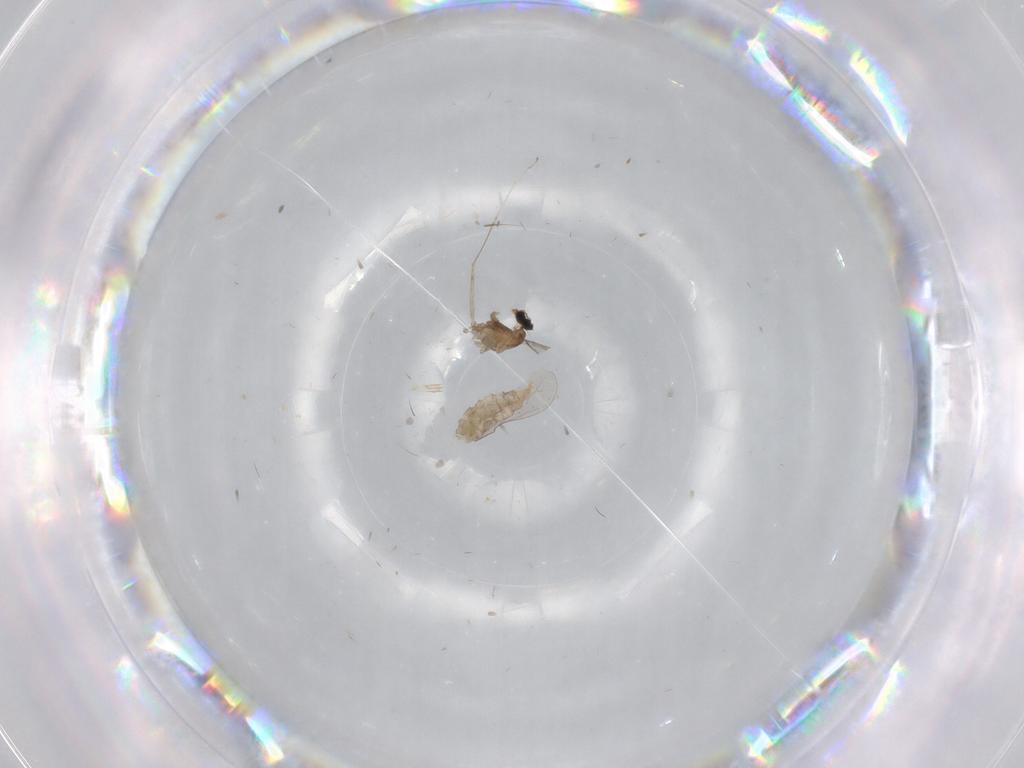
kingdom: Animalia
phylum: Arthropoda
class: Insecta
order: Diptera
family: Cecidomyiidae
